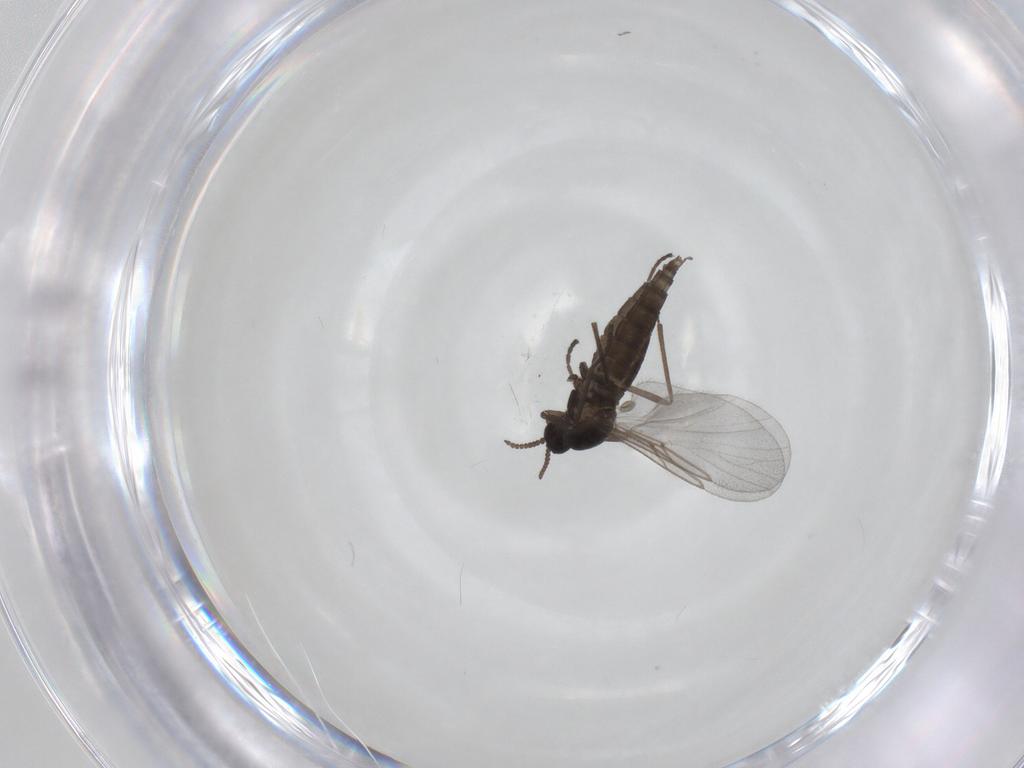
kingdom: Animalia
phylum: Arthropoda
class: Insecta
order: Diptera
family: Cecidomyiidae
